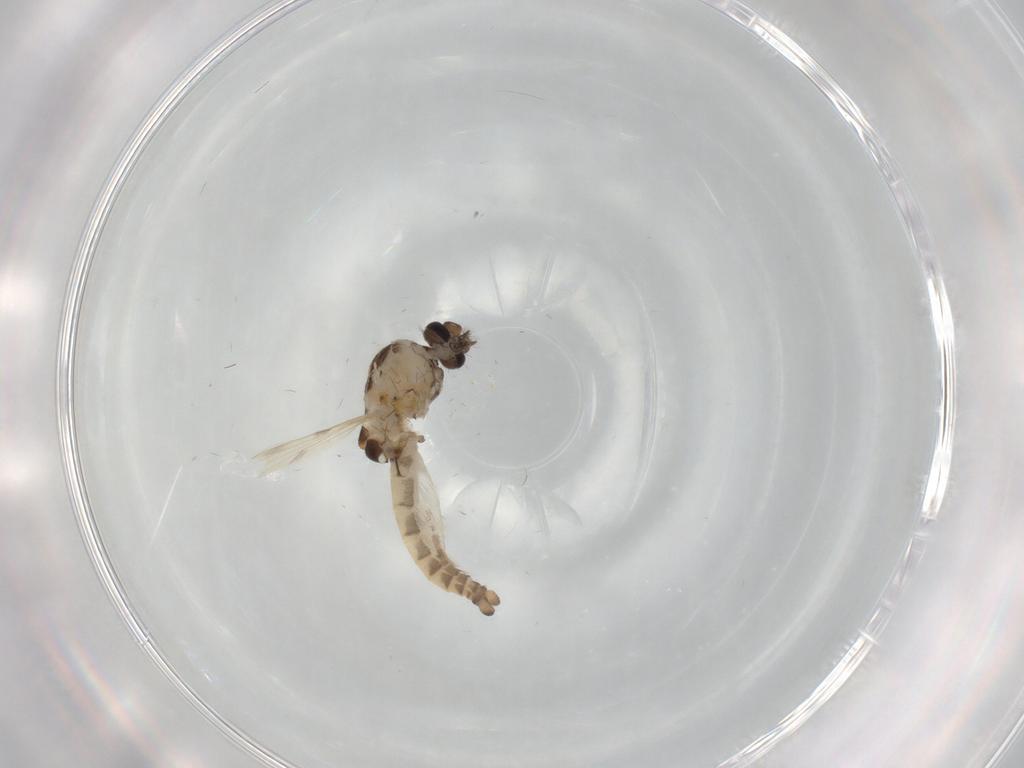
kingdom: Animalia
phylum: Arthropoda
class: Insecta
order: Diptera
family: Ceratopogonidae
